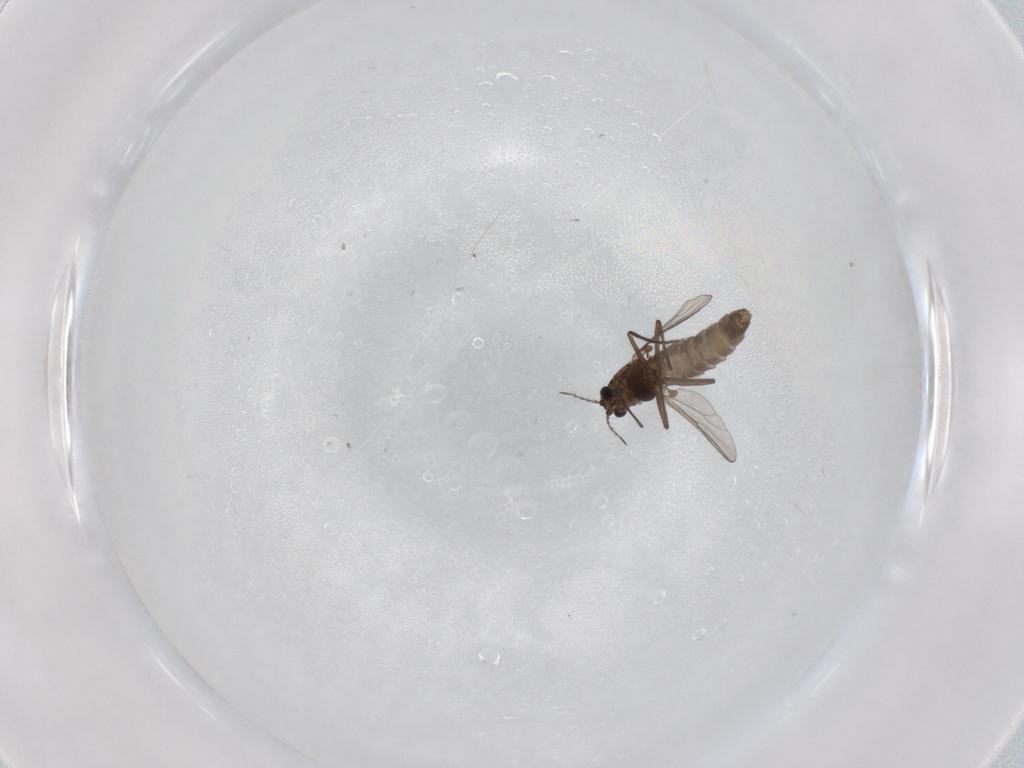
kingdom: Animalia
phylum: Arthropoda
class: Insecta
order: Diptera
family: Chironomidae
